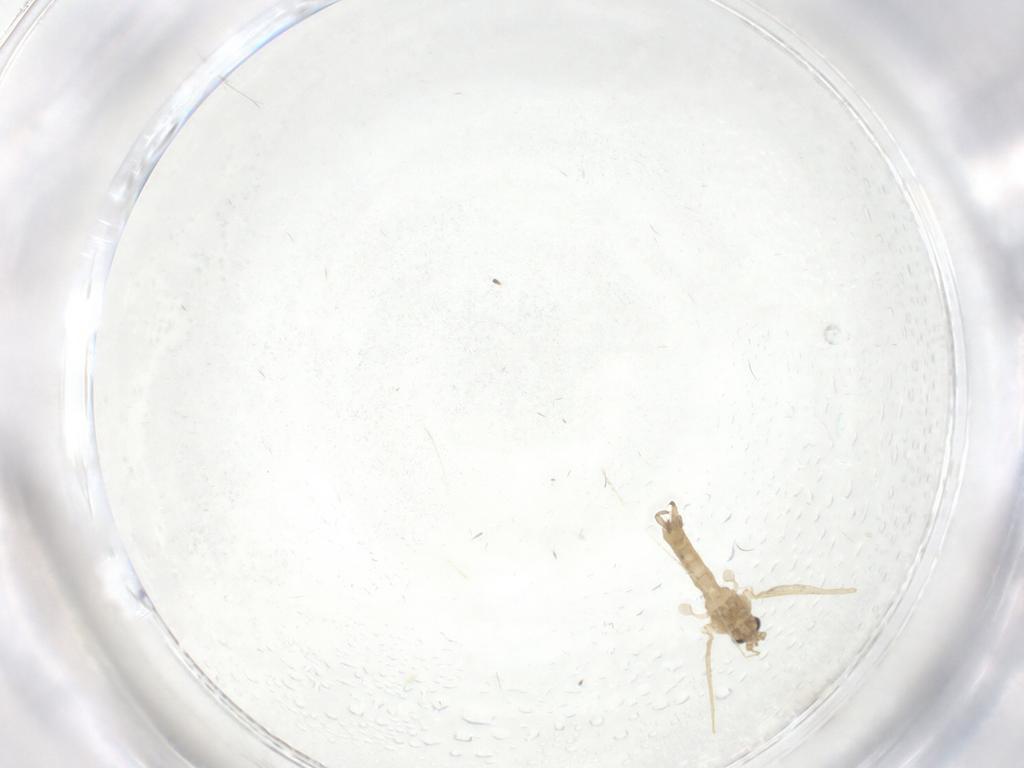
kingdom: Animalia
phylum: Arthropoda
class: Insecta
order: Diptera
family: Psychodidae
